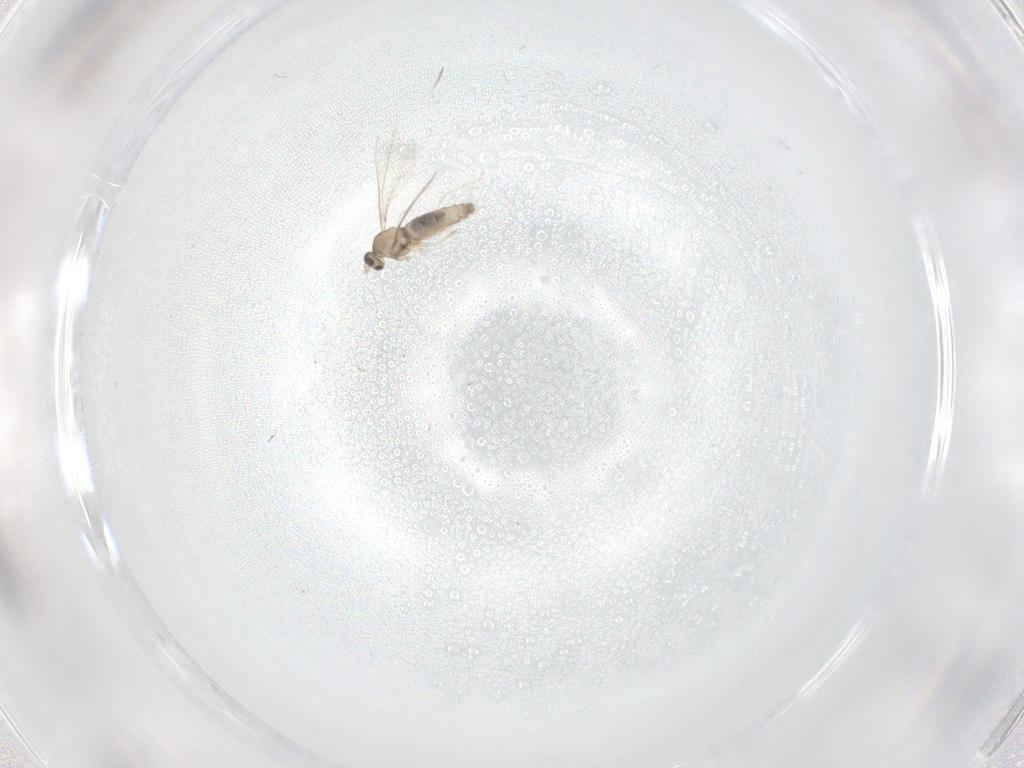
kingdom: Animalia
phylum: Arthropoda
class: Insecta
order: Diptera
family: Cecidomyiidae
